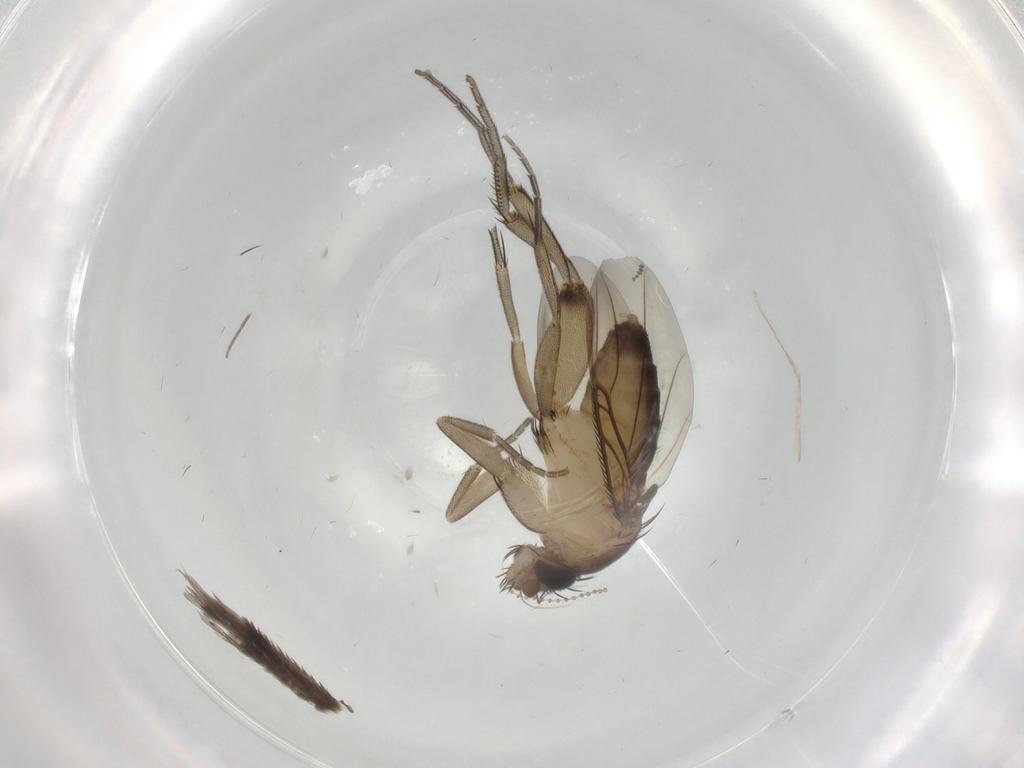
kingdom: Animalia
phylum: Arthropoda
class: Insecta
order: Diptera
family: Phoridae
